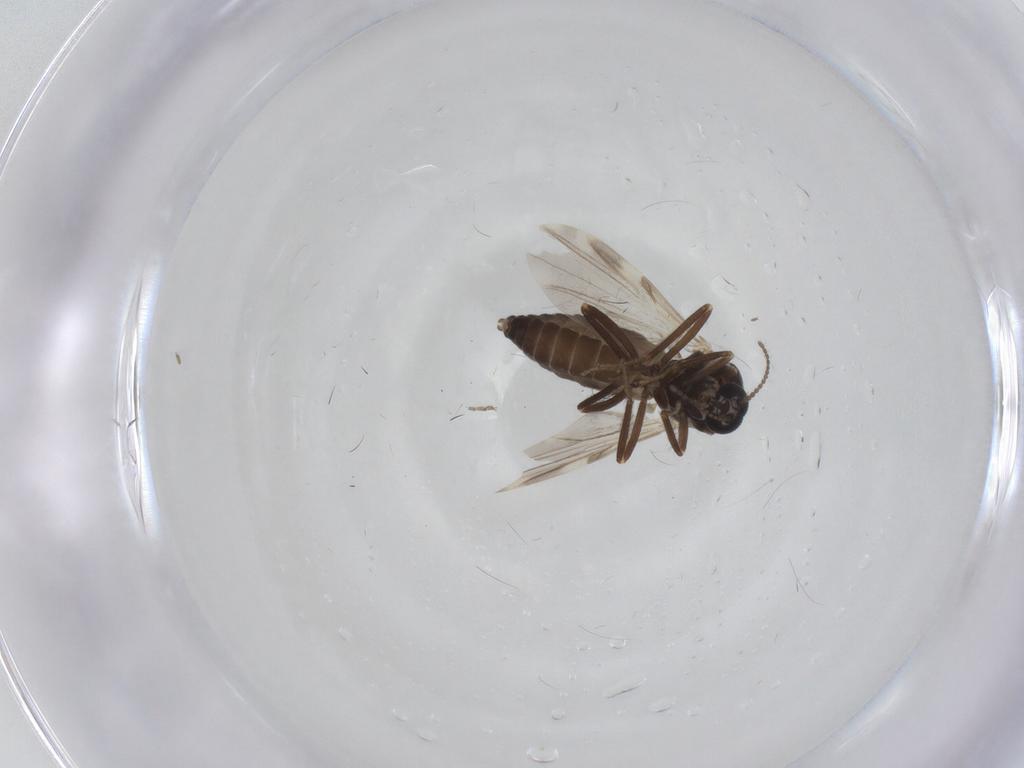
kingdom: Animalia
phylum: Arthropoda
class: Insecta
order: Diptera
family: Ceratopogonidae
